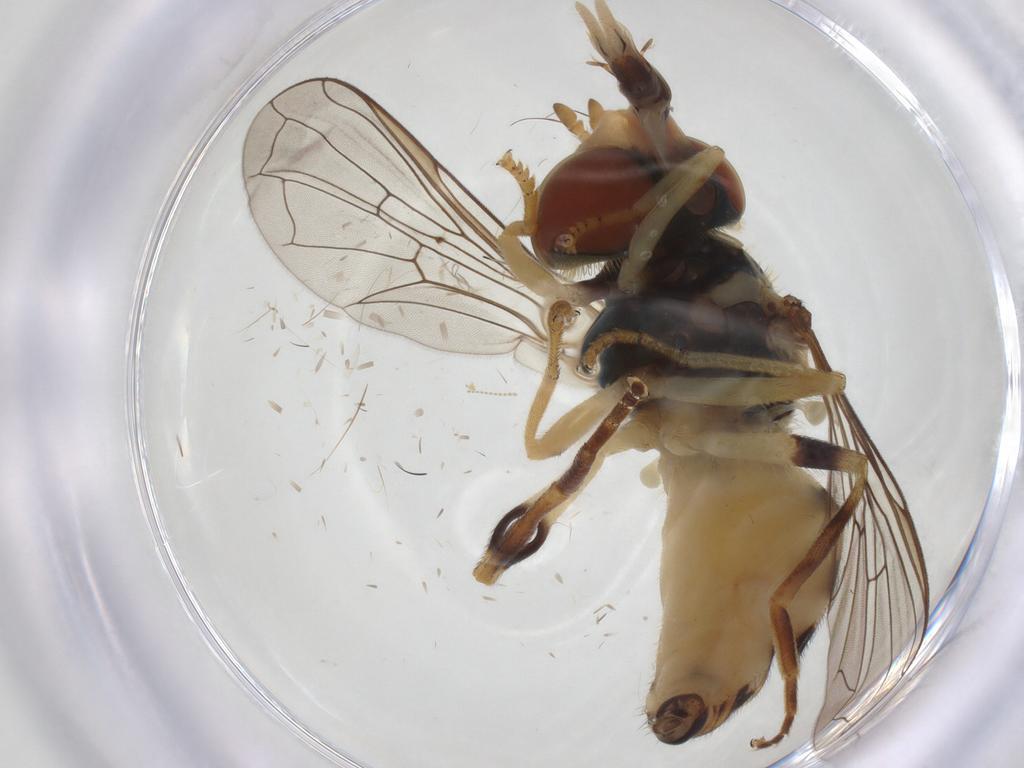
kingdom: Animalia
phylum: Arthropoda
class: Insecta
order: Diptera
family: Syrphidae
